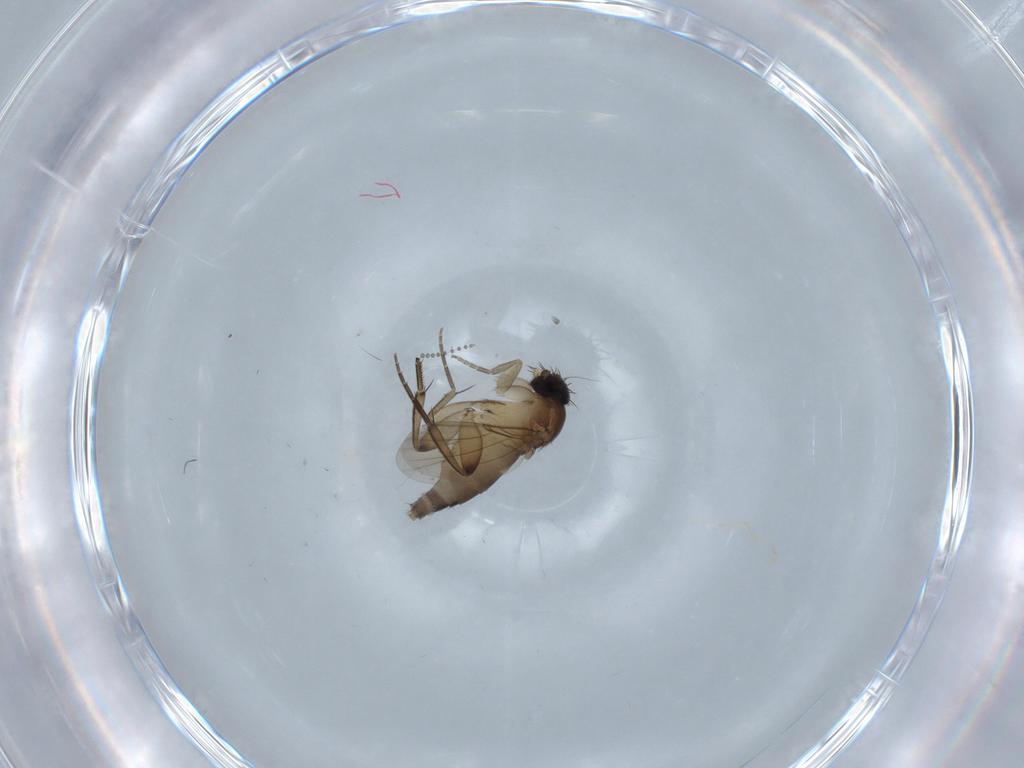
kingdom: Animalia
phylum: Arthropoda
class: Insecta
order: Diptera
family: Phoridae
